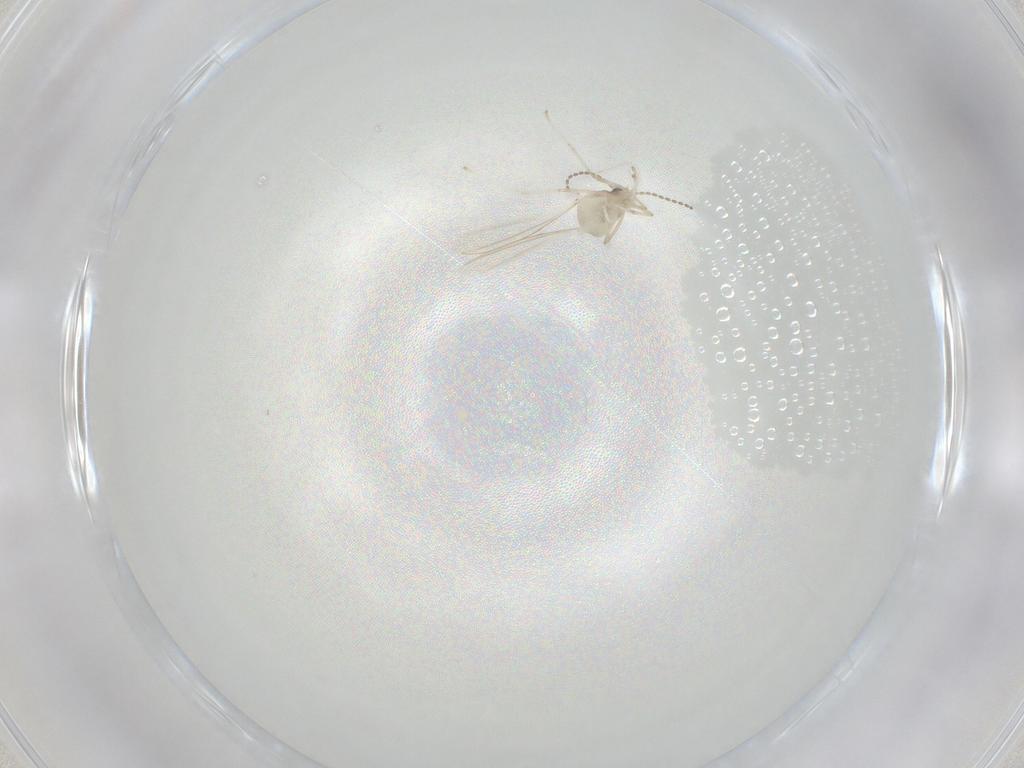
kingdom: Animalia
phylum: Arthropoda
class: Insecta
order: Diptera
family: Cecidomyiidae
